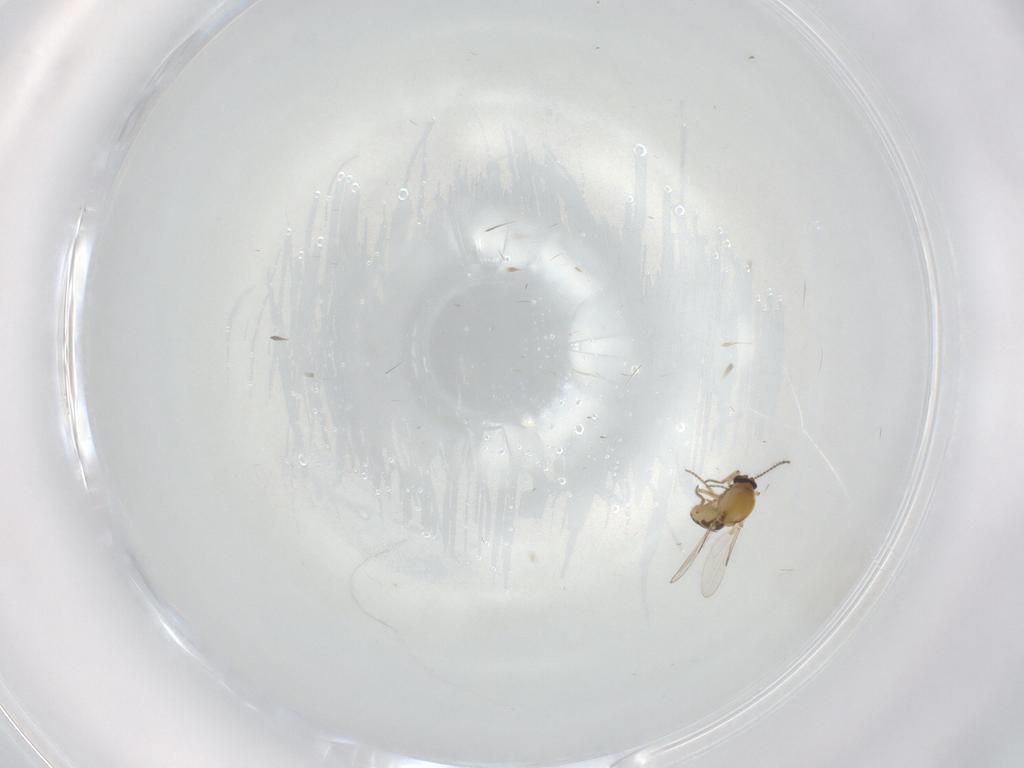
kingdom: Animalia
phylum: Arthropoda
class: Insecta
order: Diptera
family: Ceratopogonidae
